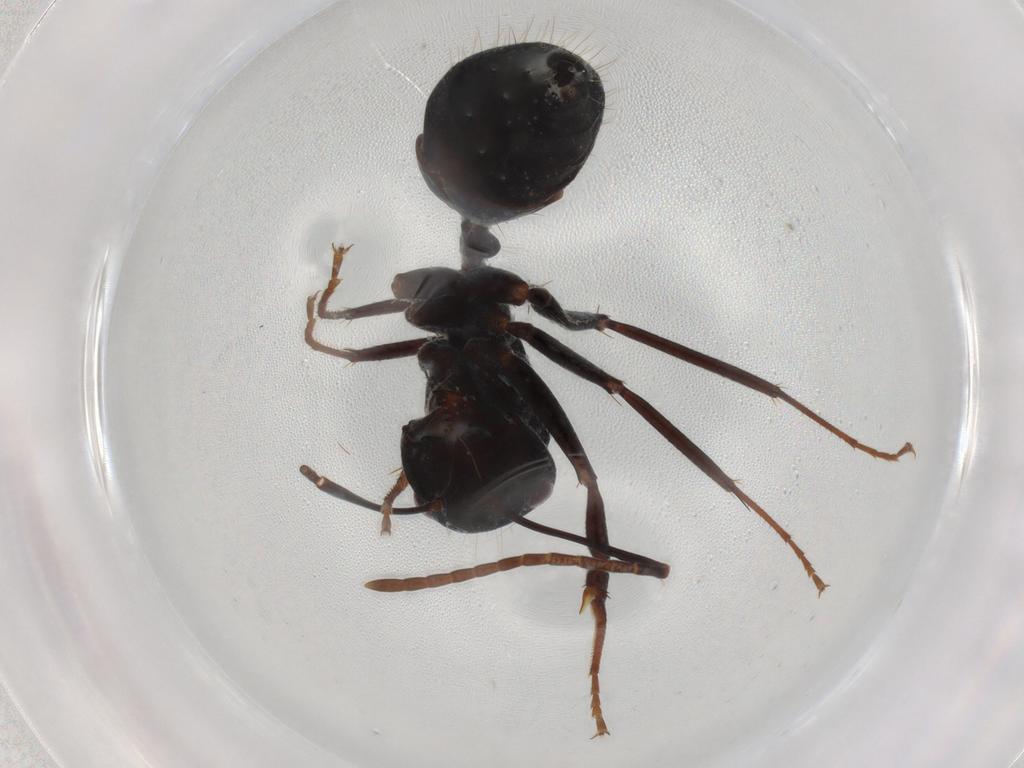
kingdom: Animalia
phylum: Arthropoda
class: Insecta
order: Hymenoptera
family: Formicidae
